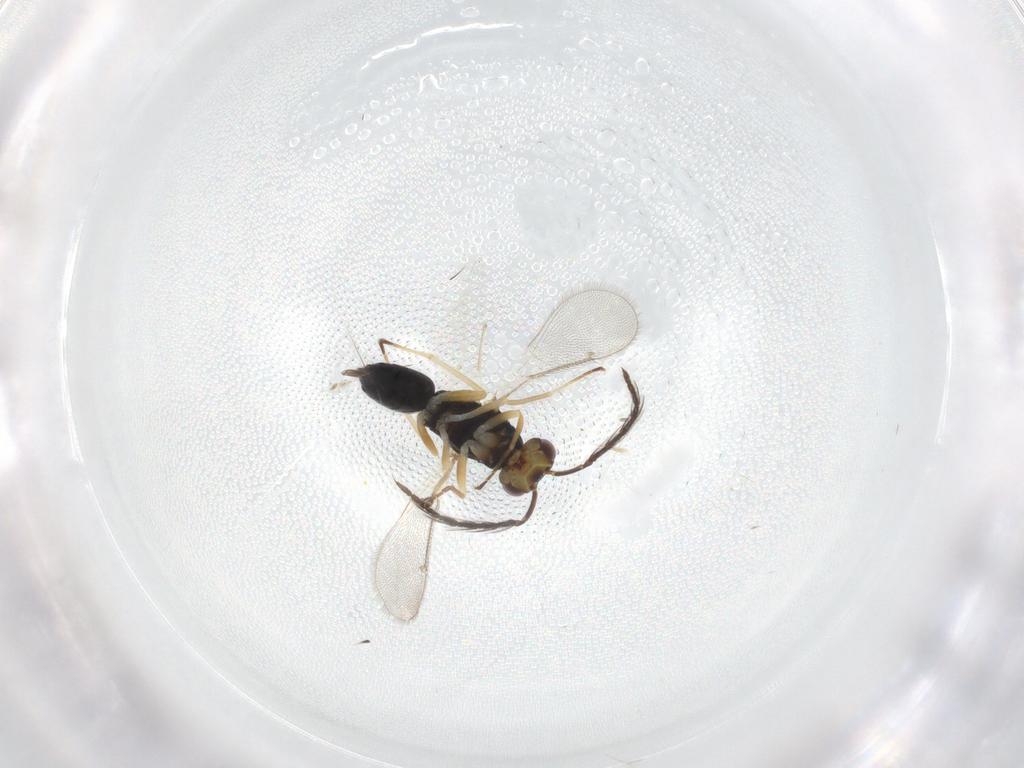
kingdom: Animalia
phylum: Arthropoda
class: Insecta
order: Hymenoptera
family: Eulophidae
